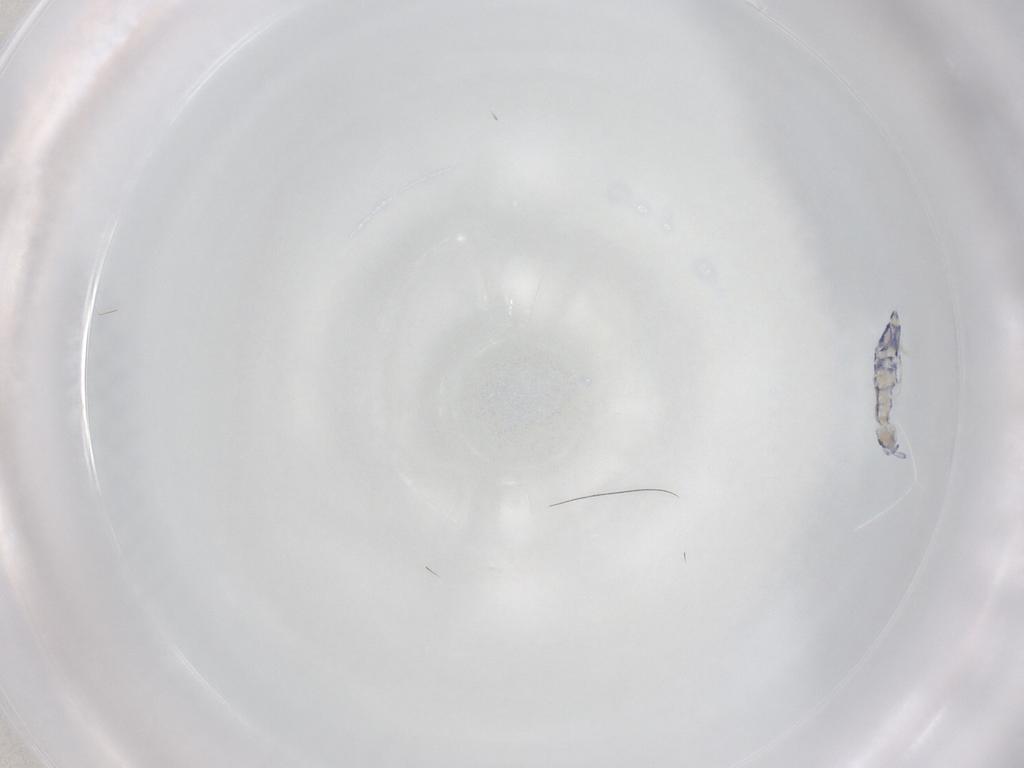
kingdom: Animalia
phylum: Arthropoda
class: Collembola
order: Entomobryomorpha
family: Entomobryidae
